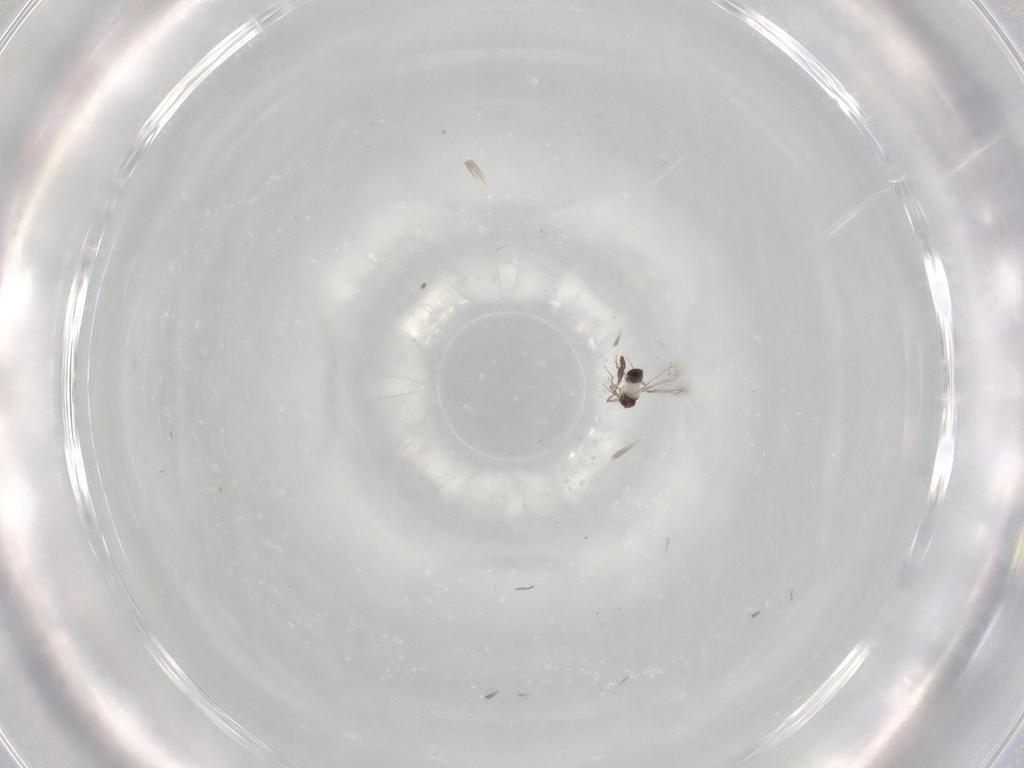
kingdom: Animalia
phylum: Arthropoda
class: Insecta
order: Hymenoptera
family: Mymaridae
